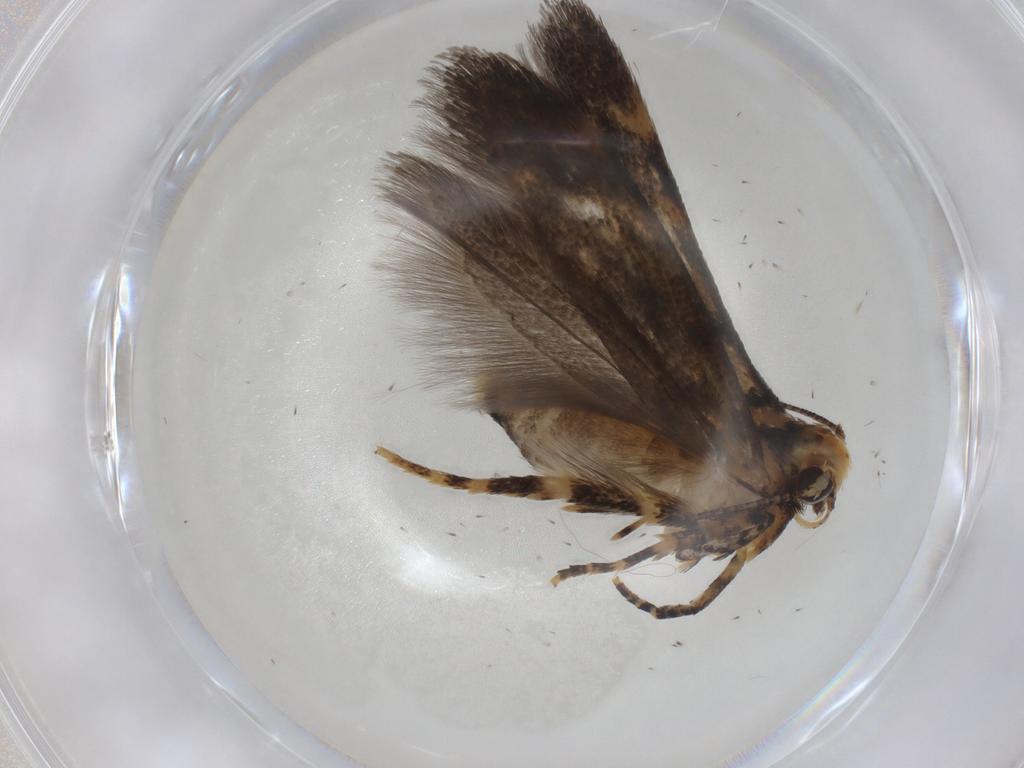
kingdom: Animalia
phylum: Arthropoda
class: Insecta
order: Lepidoptera
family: Gelechiidae
